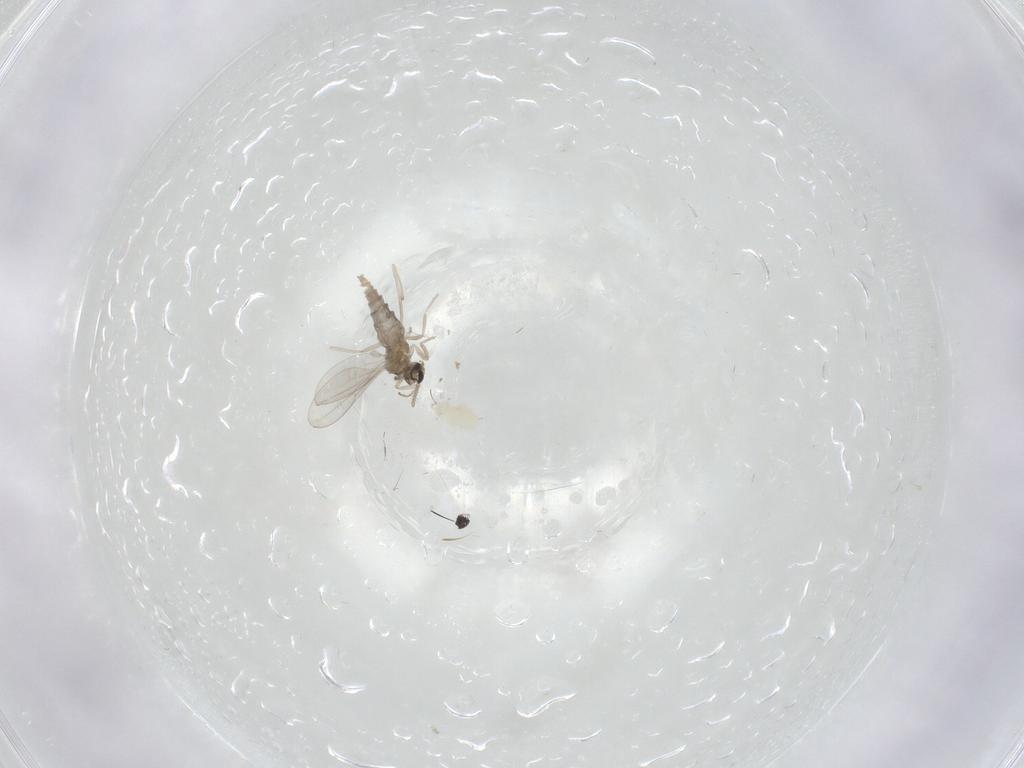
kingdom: Animalia
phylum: Arthropoda
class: Insecta
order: Diptera
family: Cecidomyiidae
